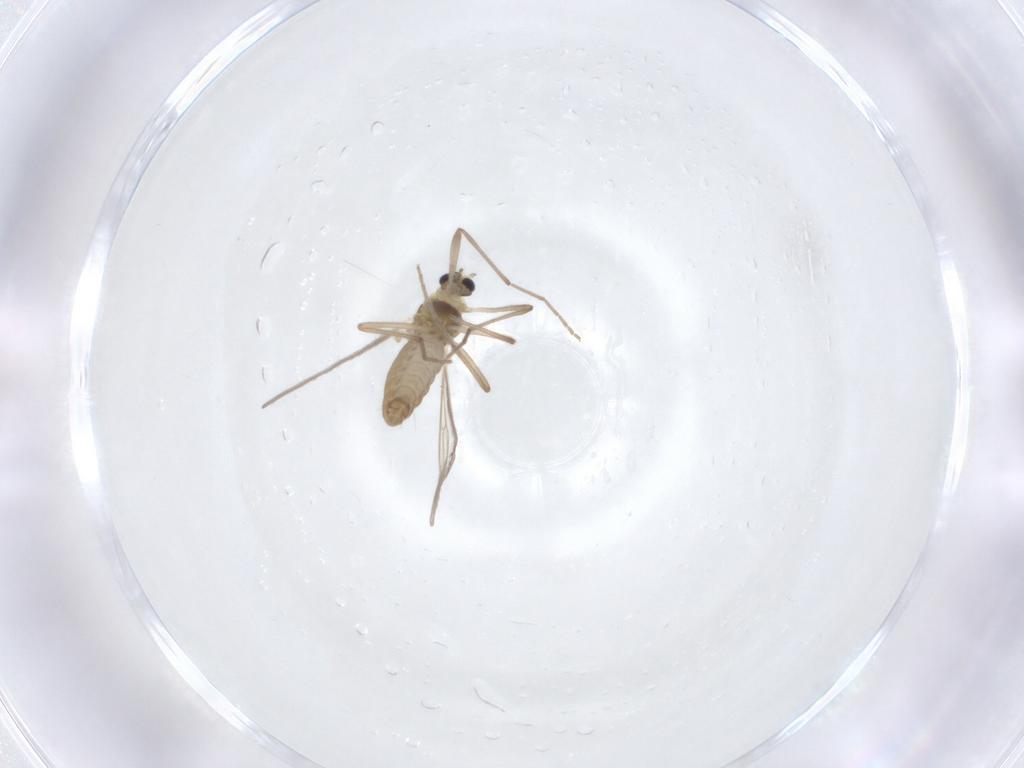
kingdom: Animalia
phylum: Arthropoda
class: Insecta
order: Diptera
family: Chironomidae
